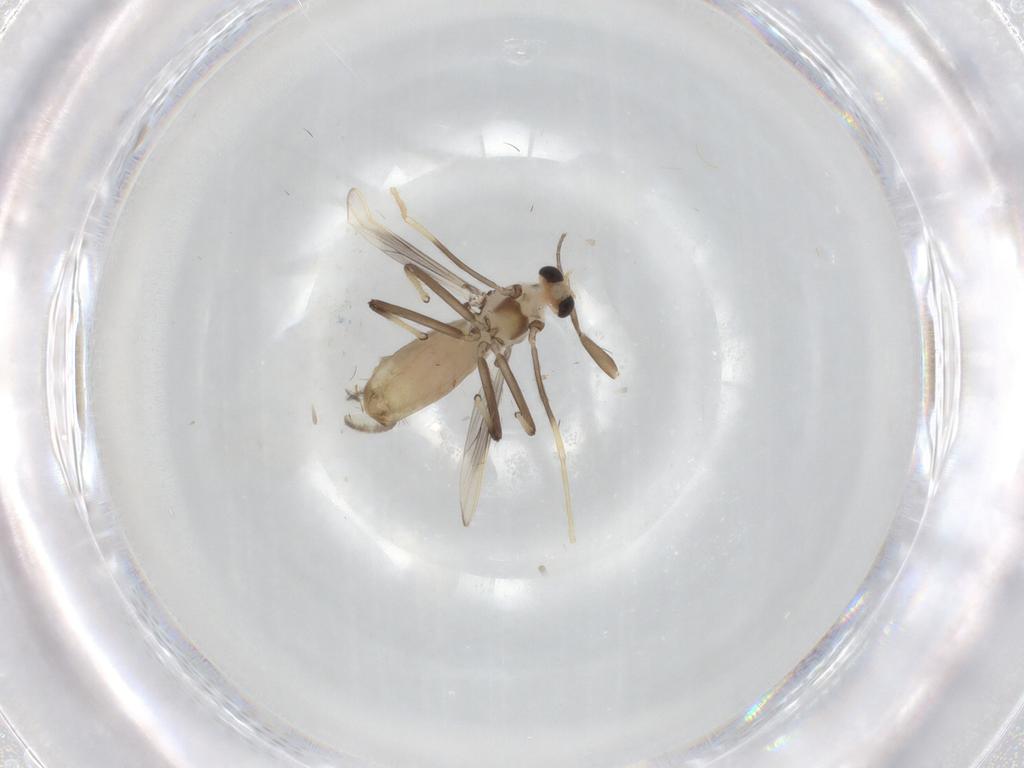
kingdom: Animalia
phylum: Arthropoda
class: Insecta
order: Diptera
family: Chironomidae
